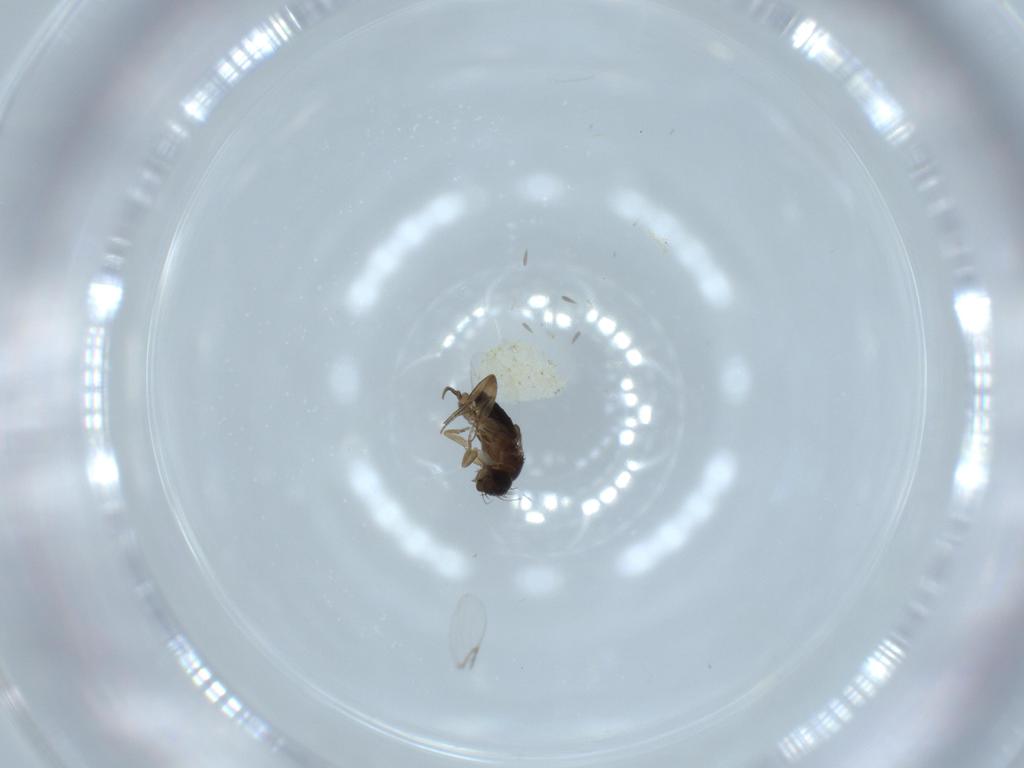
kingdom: Animalia
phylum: Arthropoda
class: Insecta
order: Diptera
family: Phoridae
